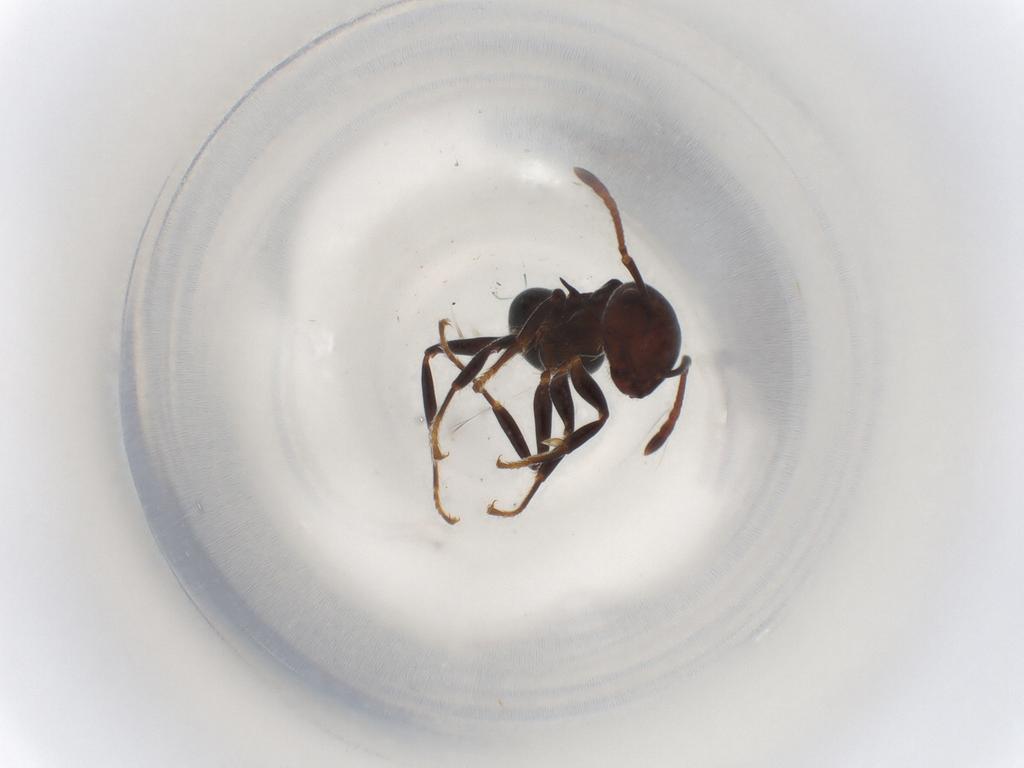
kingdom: Animalia
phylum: Arthropoda
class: Insecta
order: Hymenoptera
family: Formicidae
